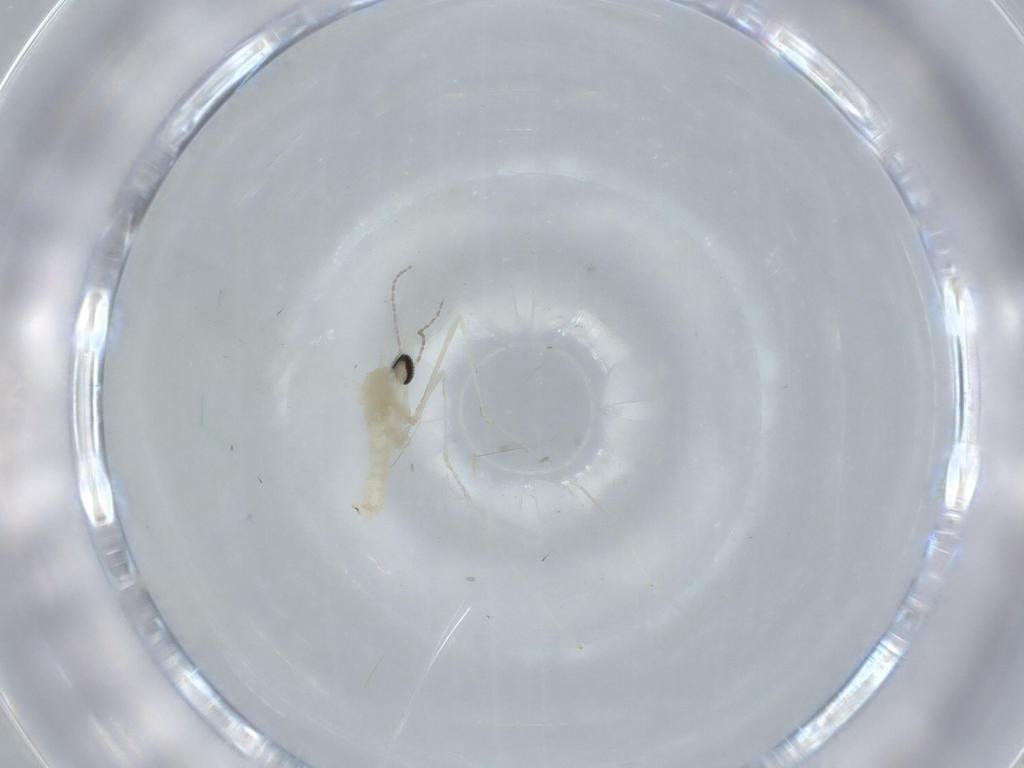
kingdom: Animalia
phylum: Arthropoda
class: Insecta
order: Diptera
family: Cecidomyiidae
